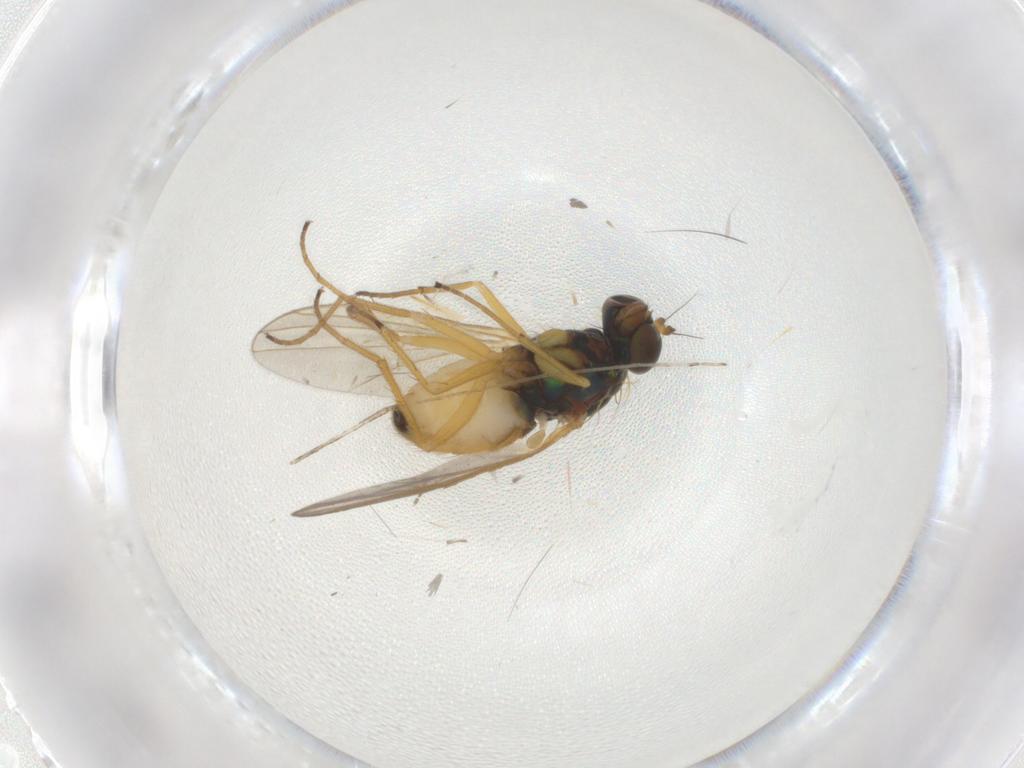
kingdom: Animalia
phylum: Arthropoda
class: Insecta
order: Diptera
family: Dolichopodidae
